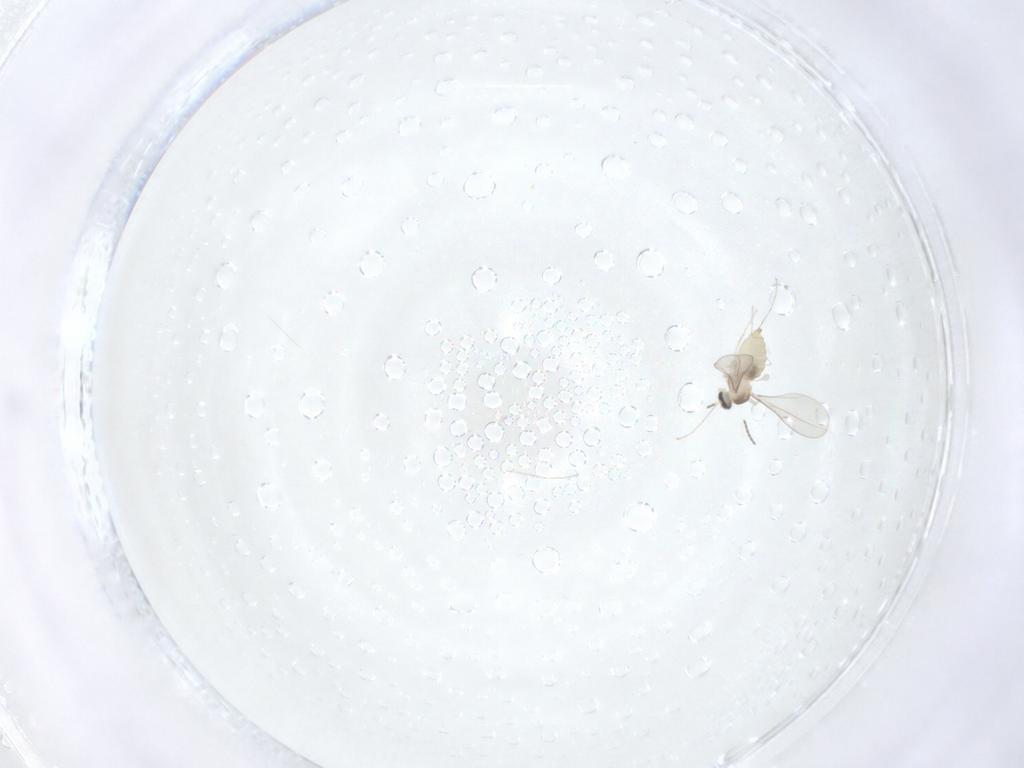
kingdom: Animalia
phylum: Arthropoda
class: Insecta
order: Diptera
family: Cecidomyiidae
